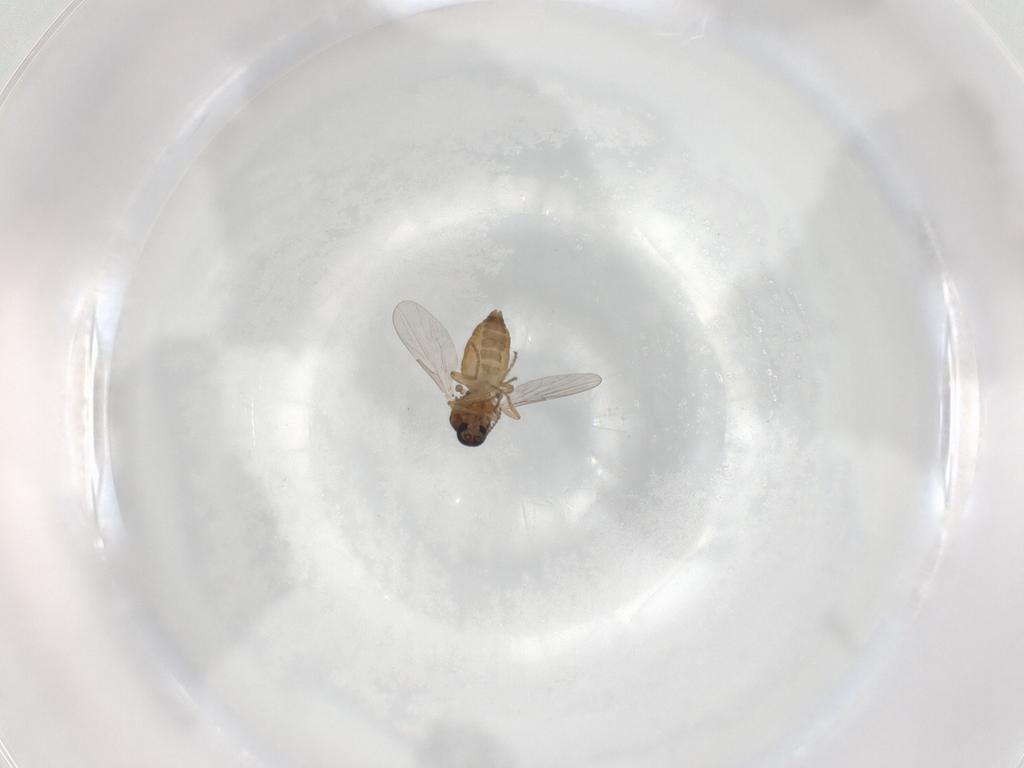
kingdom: Animalia
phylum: Arthropoda
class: Insecta
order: Diptera
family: Ceratopogonidae
